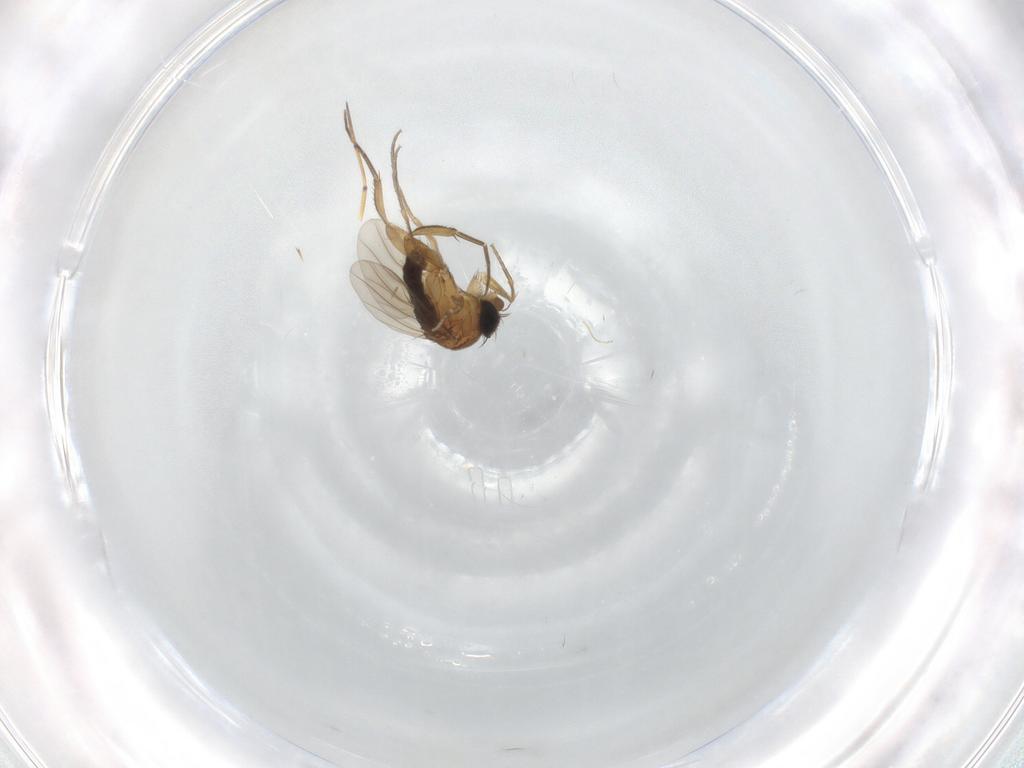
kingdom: Animalia
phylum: Arthropoda
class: Insecta
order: Diptera
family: Phoridae
